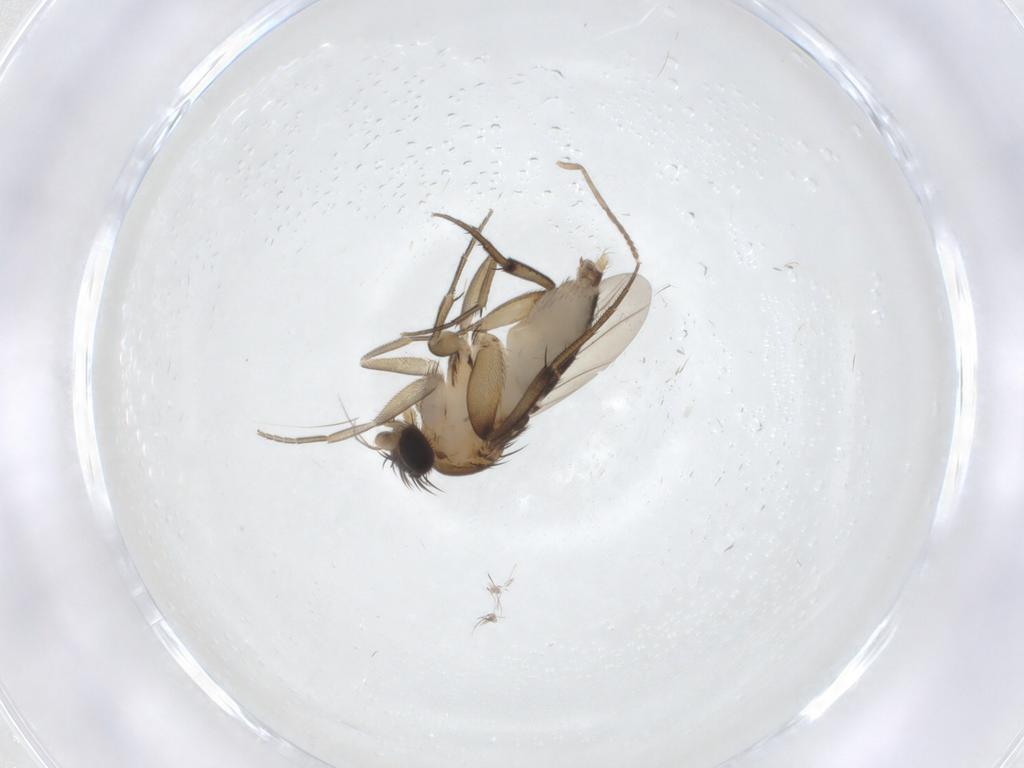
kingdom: Animalia
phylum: Arthropoda
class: Insecta
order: Diptera
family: Phoridae
